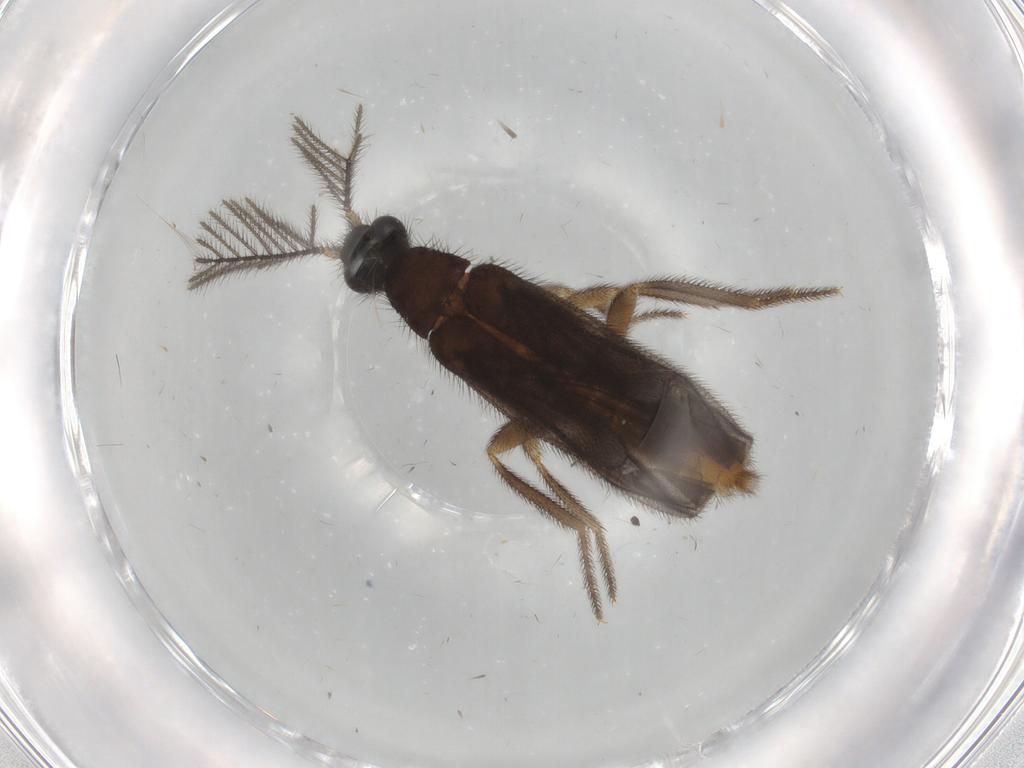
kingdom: Animalia
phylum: Arthropoda
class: Insecta
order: Coleoptera
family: Phengodidae
